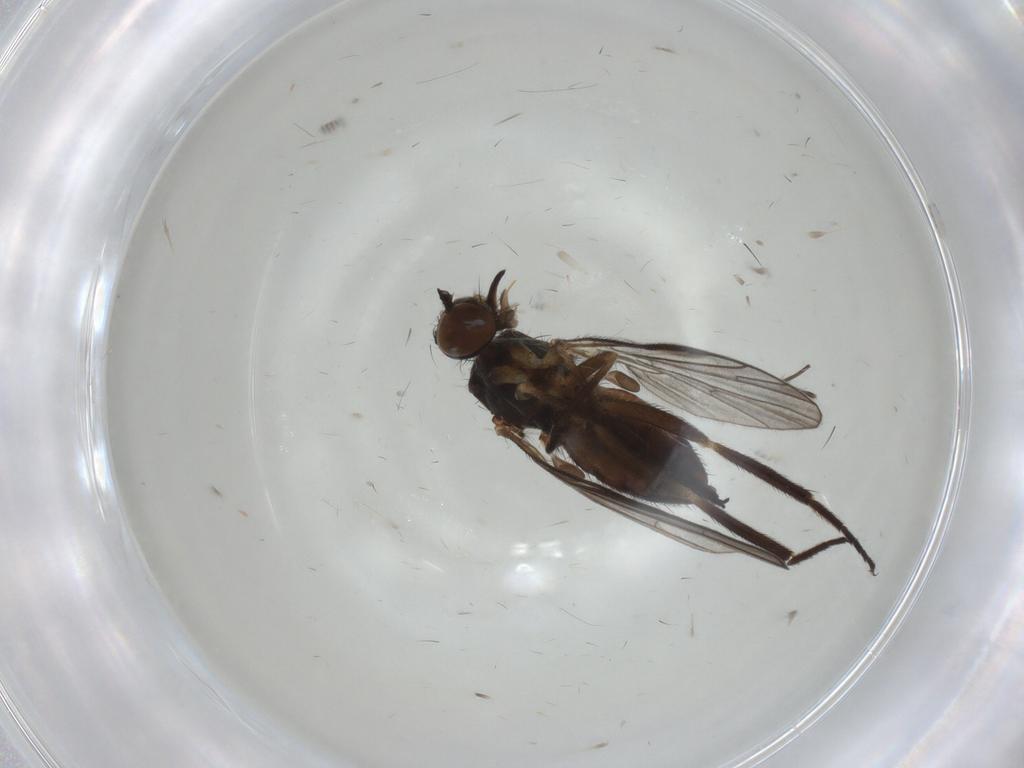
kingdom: Animalia
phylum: Arthropoda
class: Insecta
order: Diptera
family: Empididae
